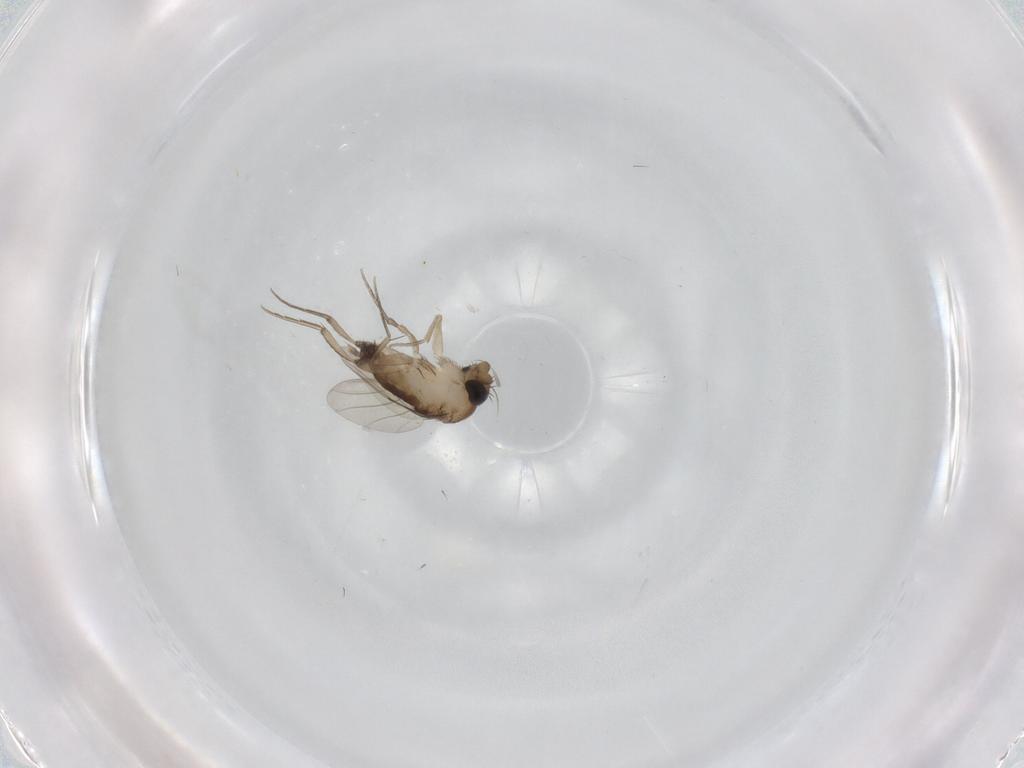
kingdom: Animalia
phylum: Arthropoda
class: Insecta
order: Diptera
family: Phoridae
